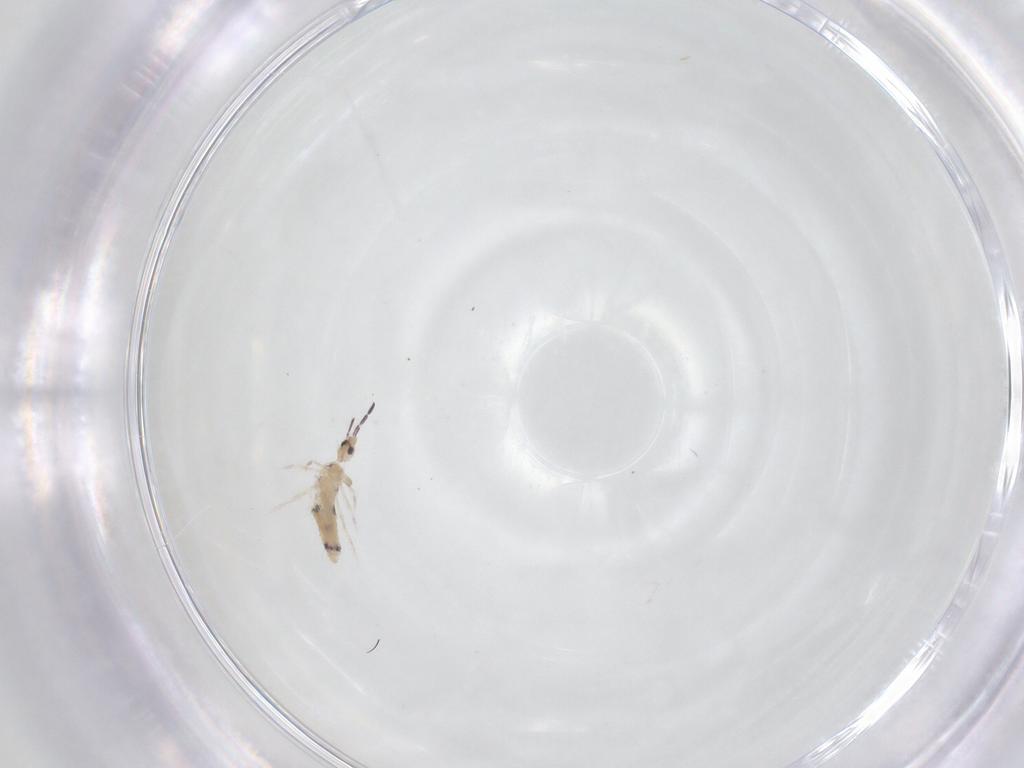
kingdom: Animalia
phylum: Arthropoda
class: Collembola
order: Entomobryomorpha
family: Entomobryidae
